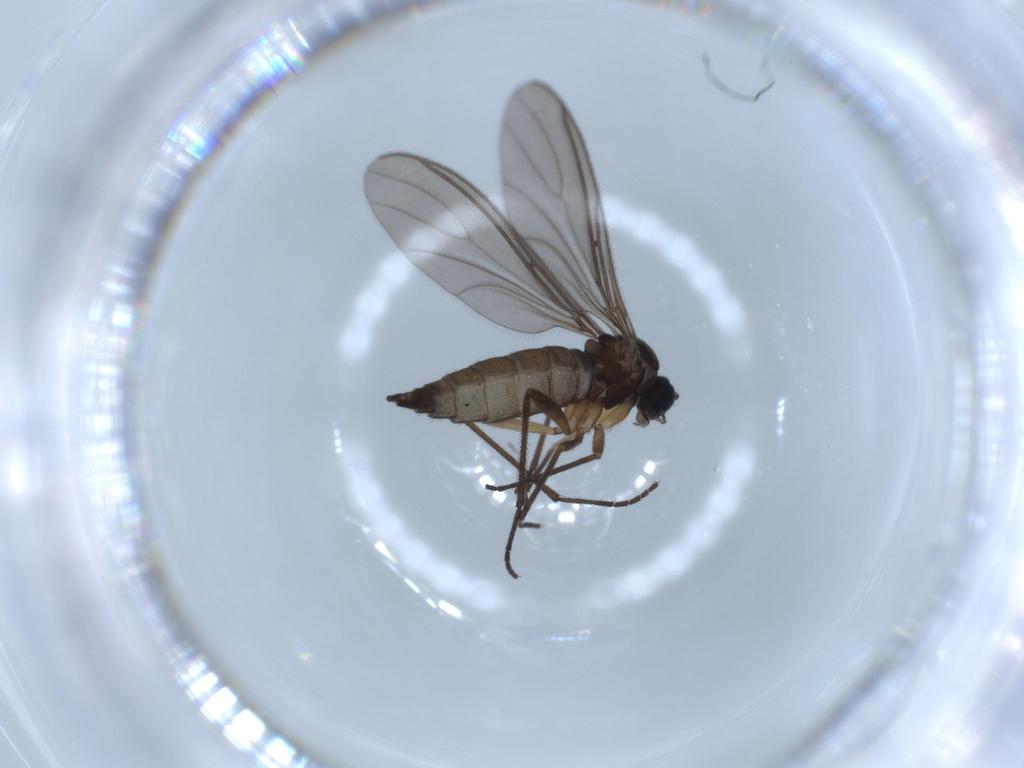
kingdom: Animalia
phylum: Arthropoda
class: Insecta
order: Diptera
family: Sciaridae
